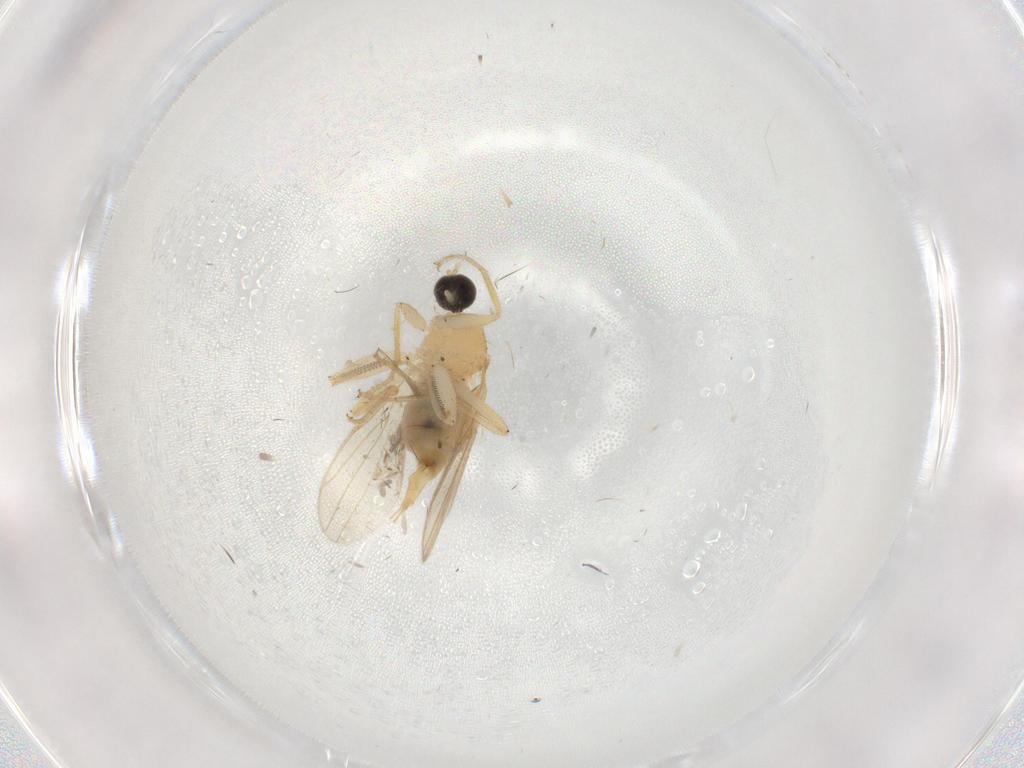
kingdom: Animalia
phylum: Arthropoda
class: Insecta
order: Diptera
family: Ceratopogonidae
